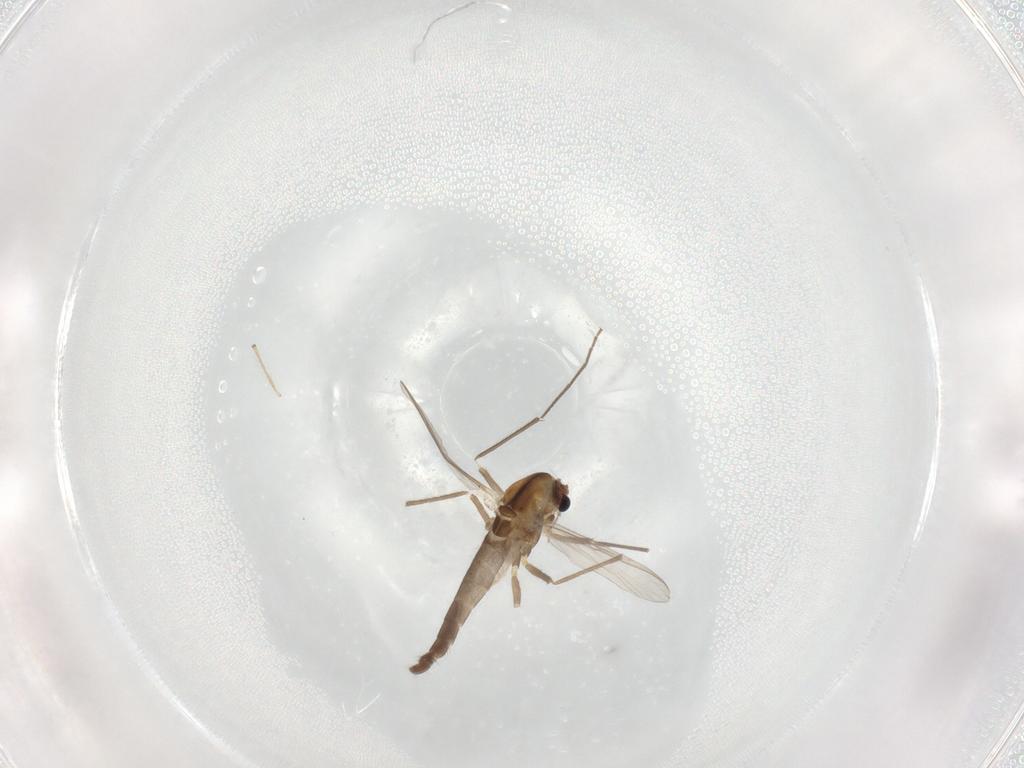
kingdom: Animalia
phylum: Arthropoda
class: Insecta
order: Diptera
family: Chironomidae
